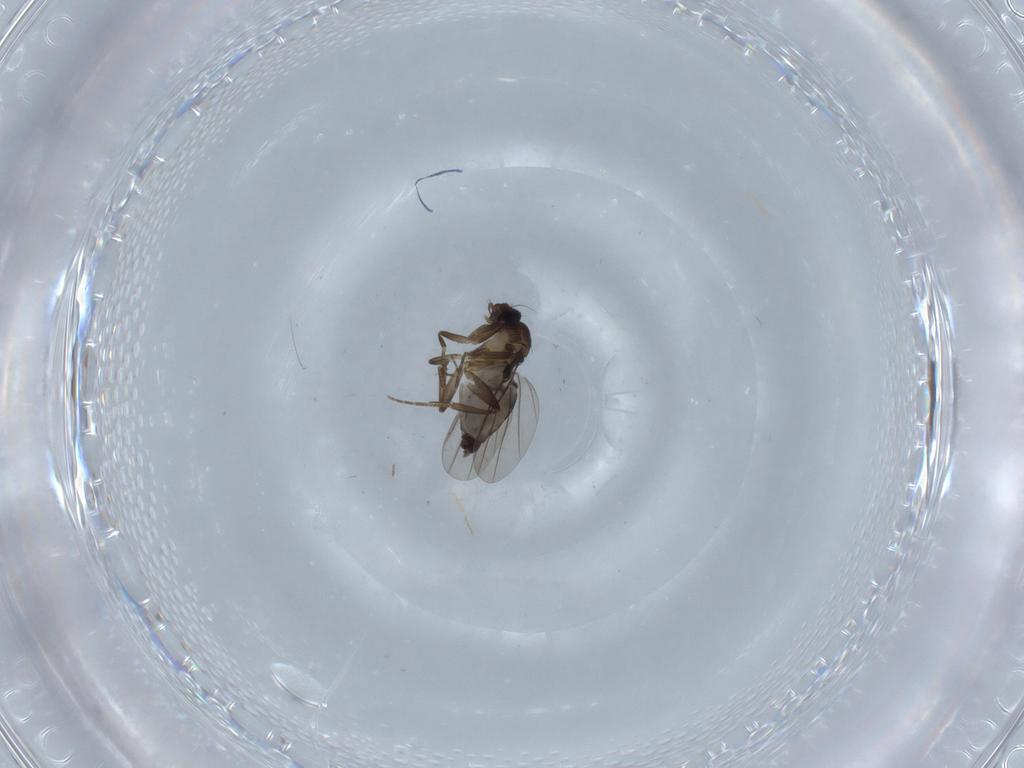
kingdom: Animalia
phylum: Arthropoda
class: Insecta
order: Diptera
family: Phoridae
